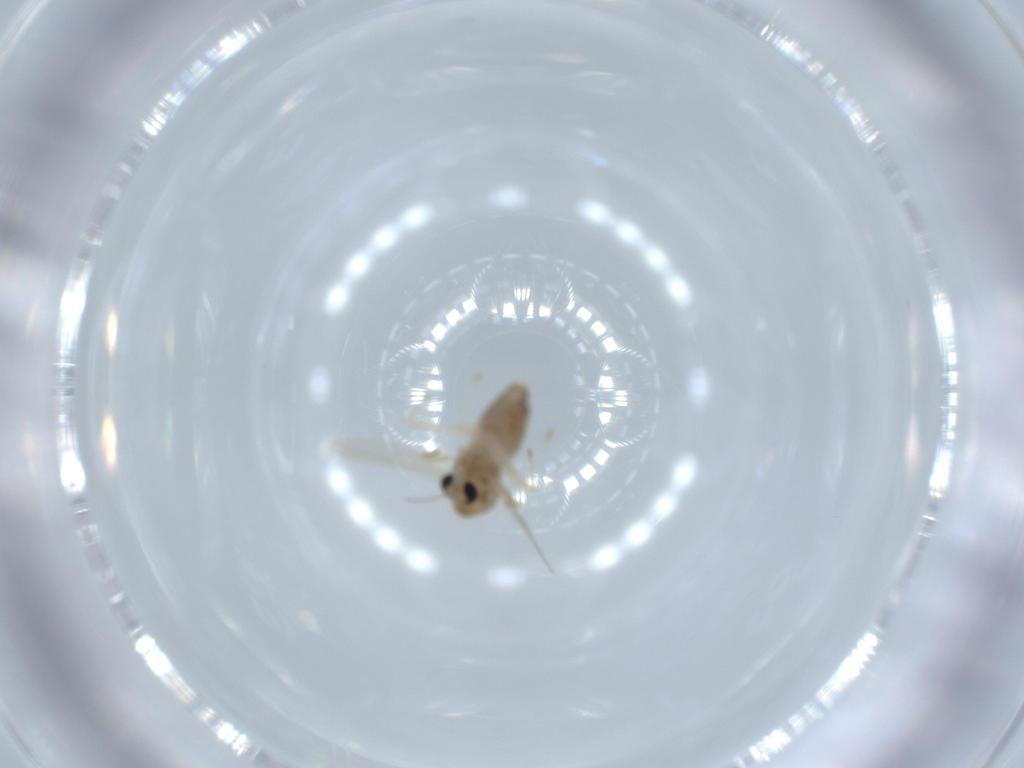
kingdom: Animalia
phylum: Arthropoda
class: Insecta
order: Diptera
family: Chironomidae
